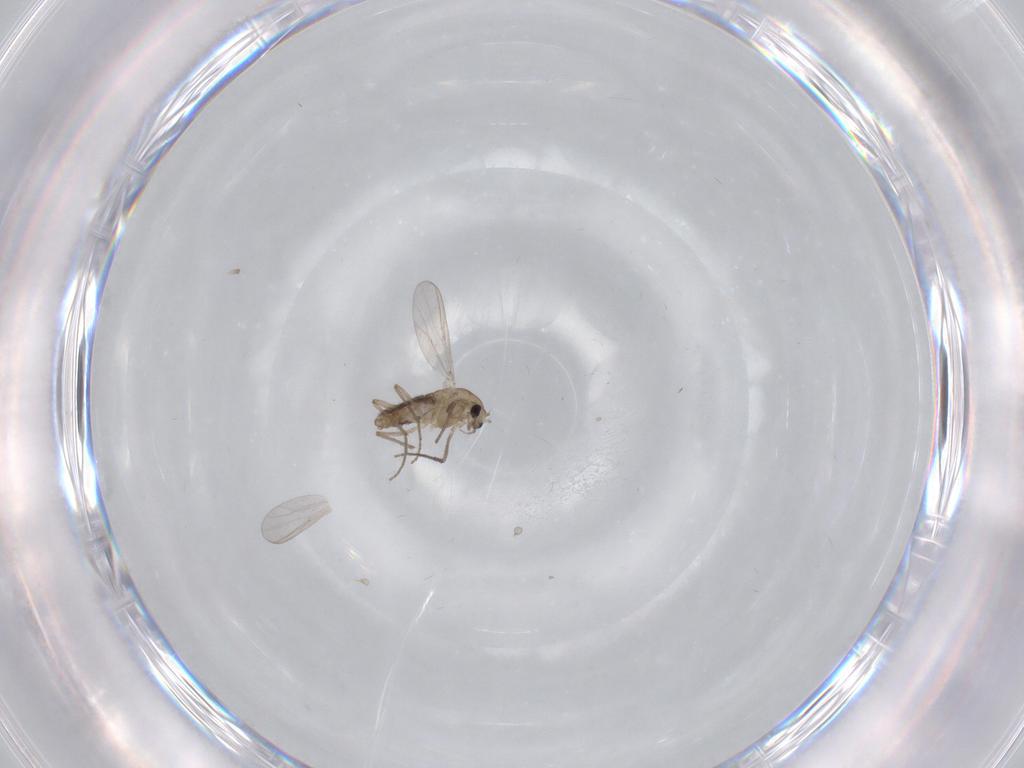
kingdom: Animalia
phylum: Arthropoda
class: Insecta
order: Diptera
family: Chironomidae
